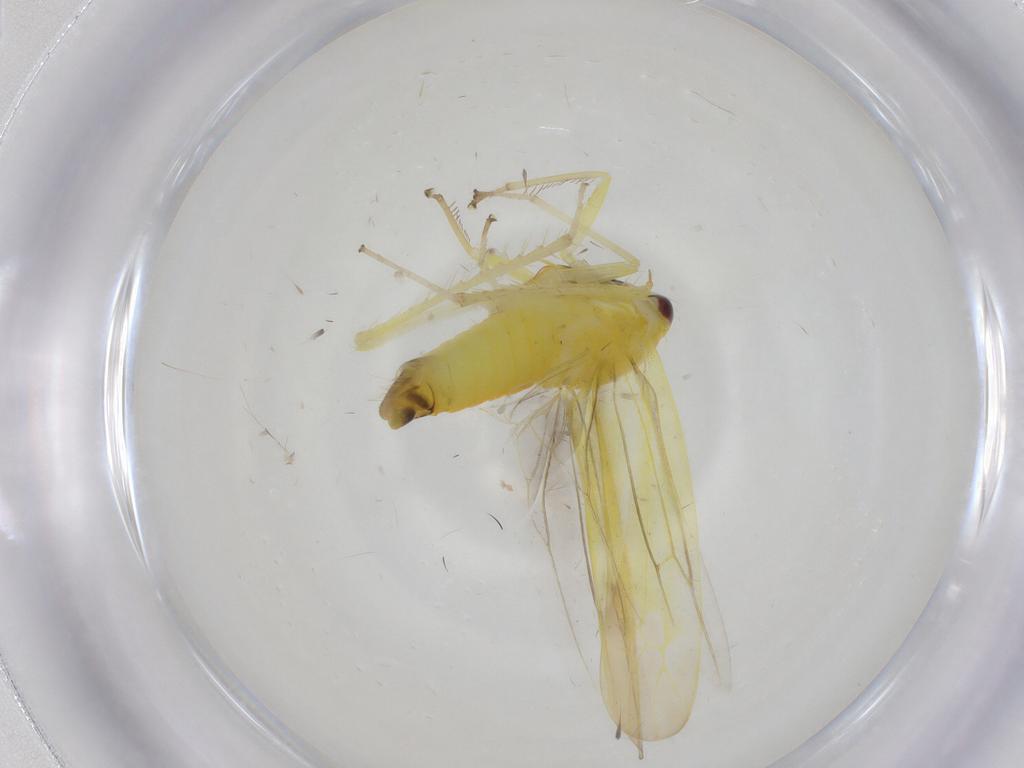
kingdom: Animalia
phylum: Arthropoda
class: Insecta
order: Hemiptera
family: Cicadellidae
